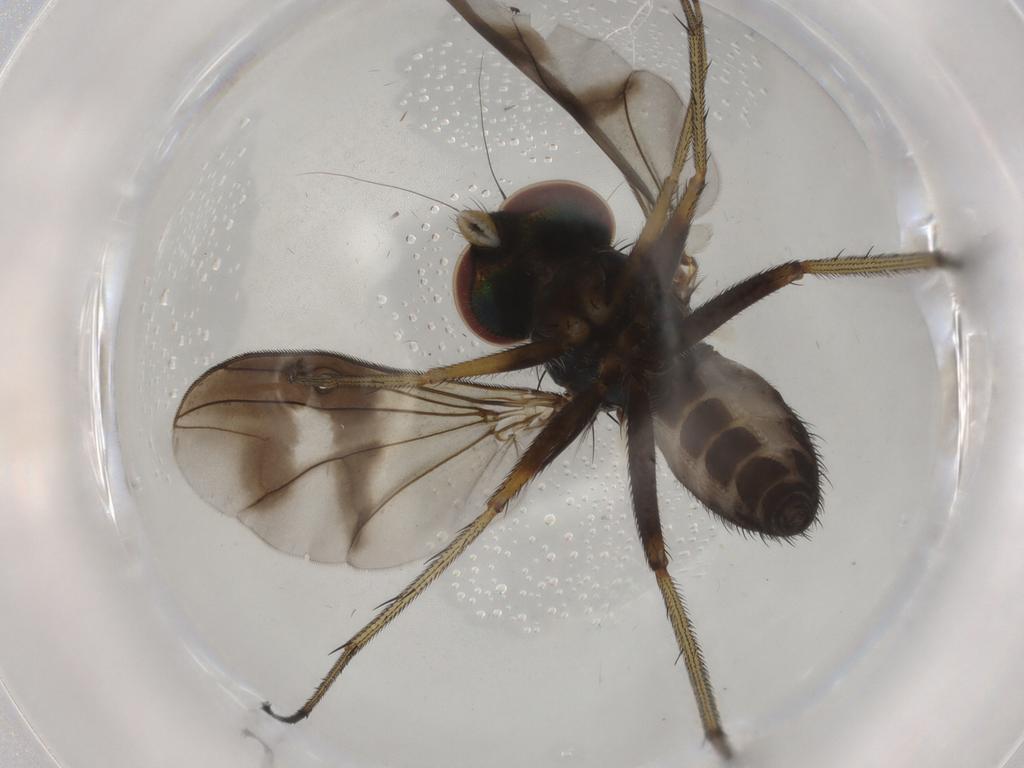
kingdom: Animalia
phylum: Arthropoda
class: Insecta
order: Diptera
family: Dolichopodidae
